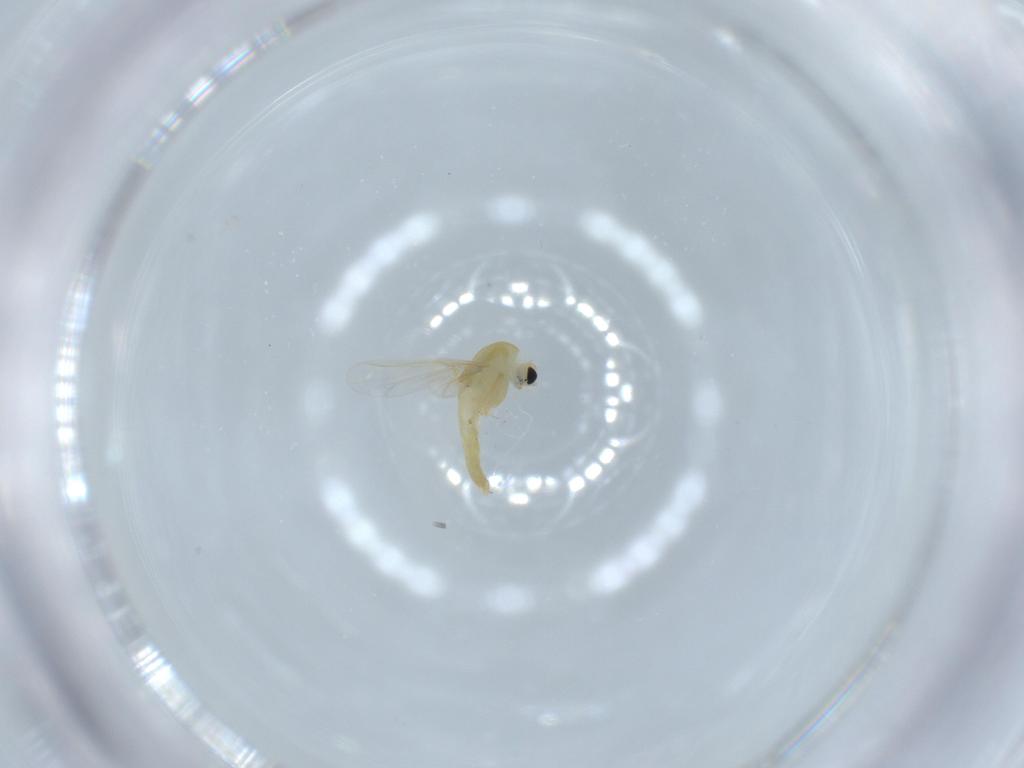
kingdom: Animalia
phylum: Arthropoda
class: Insecta
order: Diptera
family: Chironomidae
